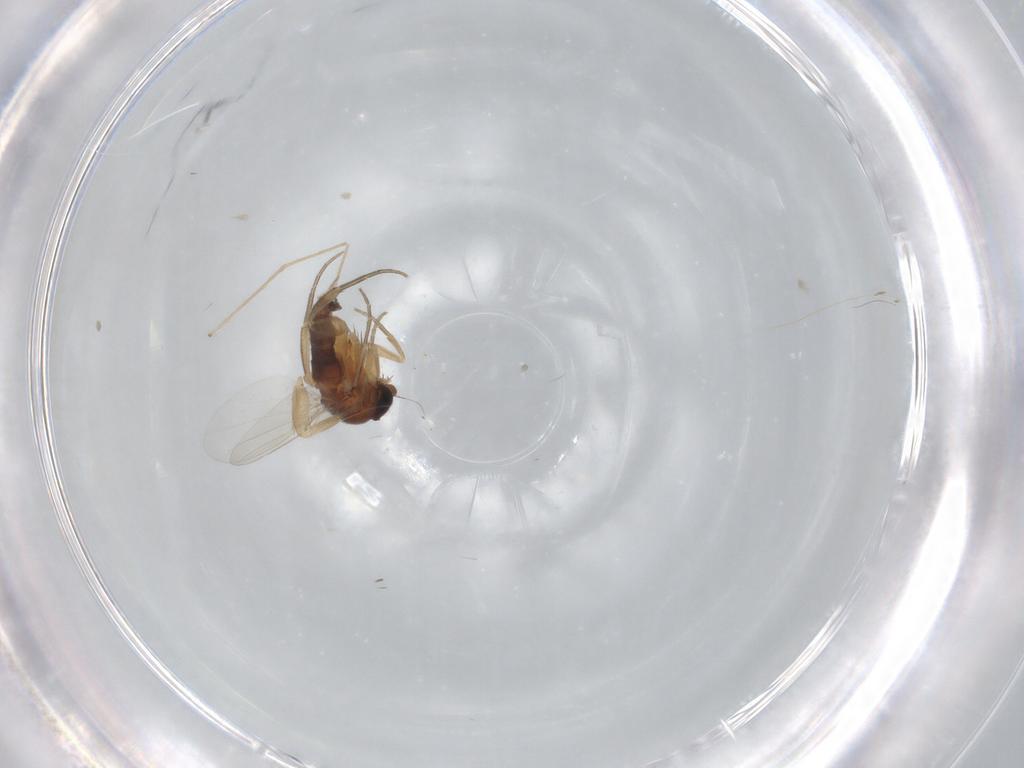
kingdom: Animalia
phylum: Arthropoda
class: Insecta
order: Diptera
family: Phoridae
